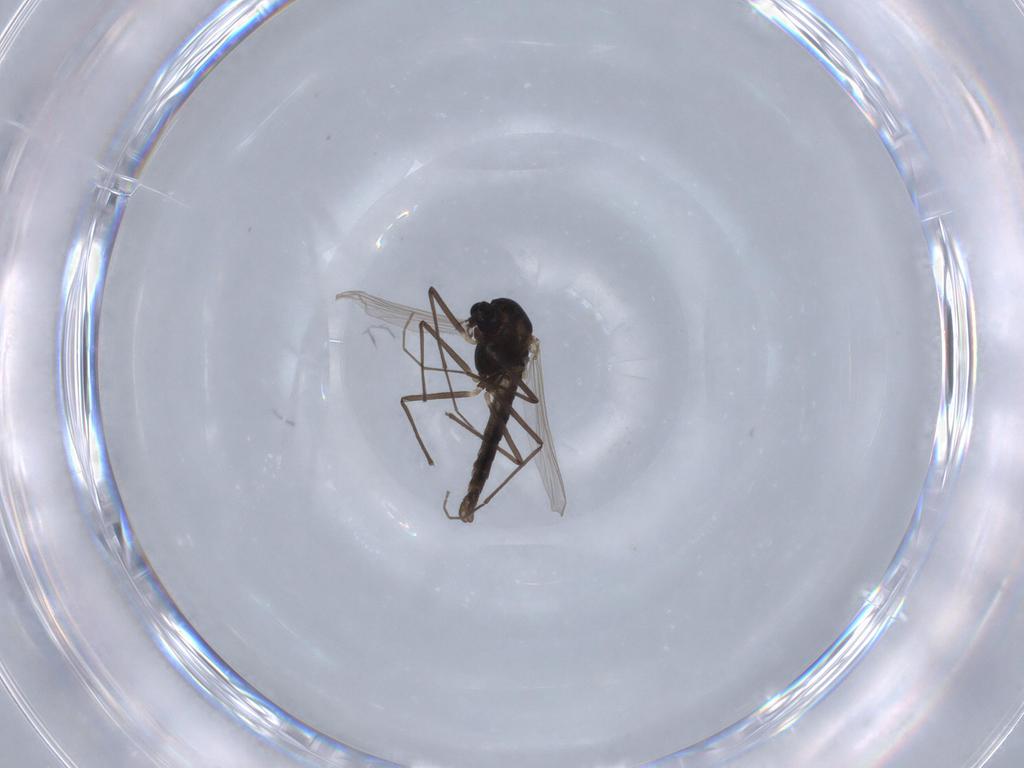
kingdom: Animalia
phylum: Arthropoda
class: Insecta
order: Diptera
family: Chironomidae
